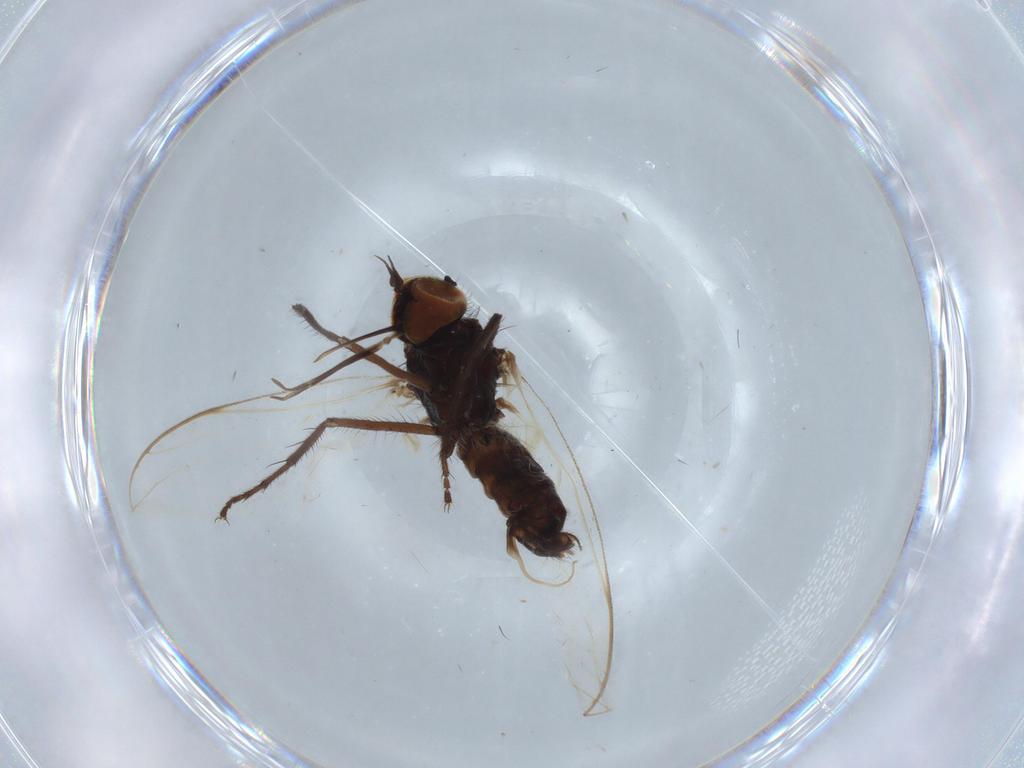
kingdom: Animalia
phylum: Arthropoda
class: Insecta
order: Diptera
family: Empididae
